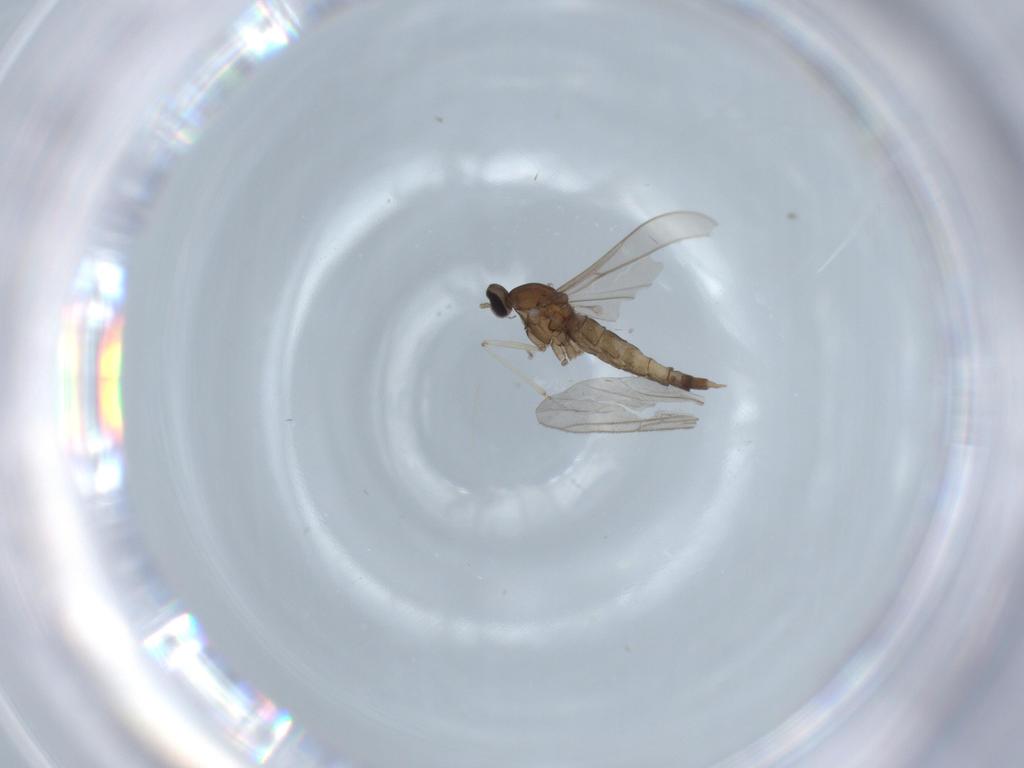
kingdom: Animalia
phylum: Arthropoda
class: Insecta
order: Diptera
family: Cecidomyiidae
